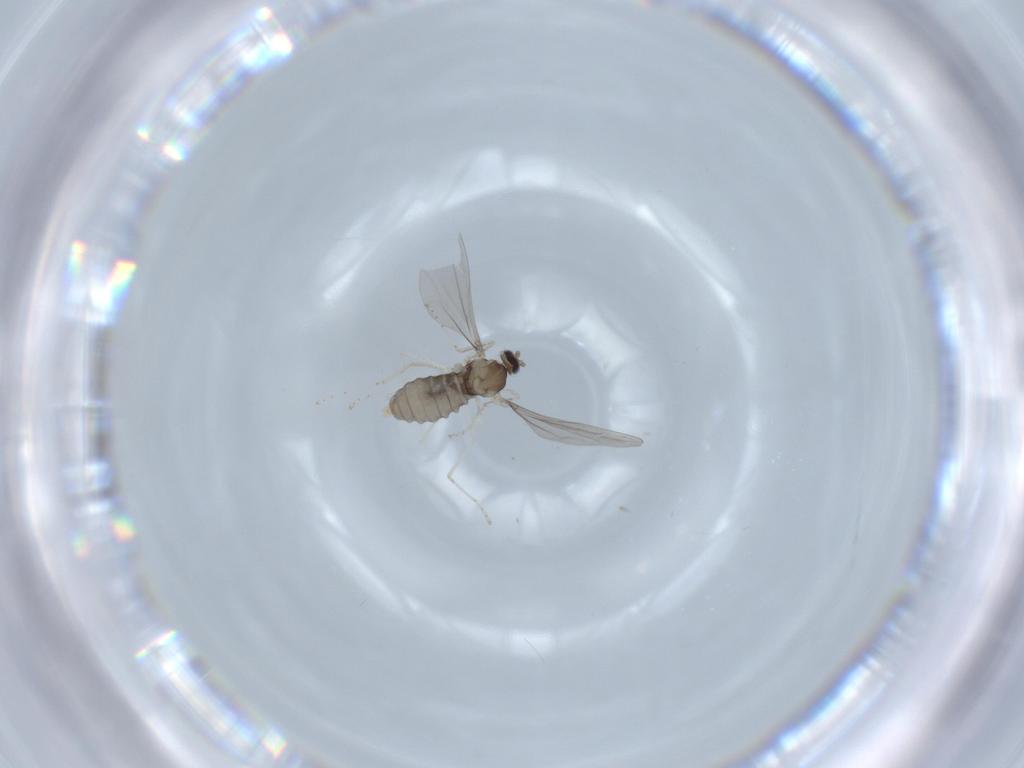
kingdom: Animalia
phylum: Arthropoda
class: Insecta
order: Diptera
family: Cecidomyiidae
